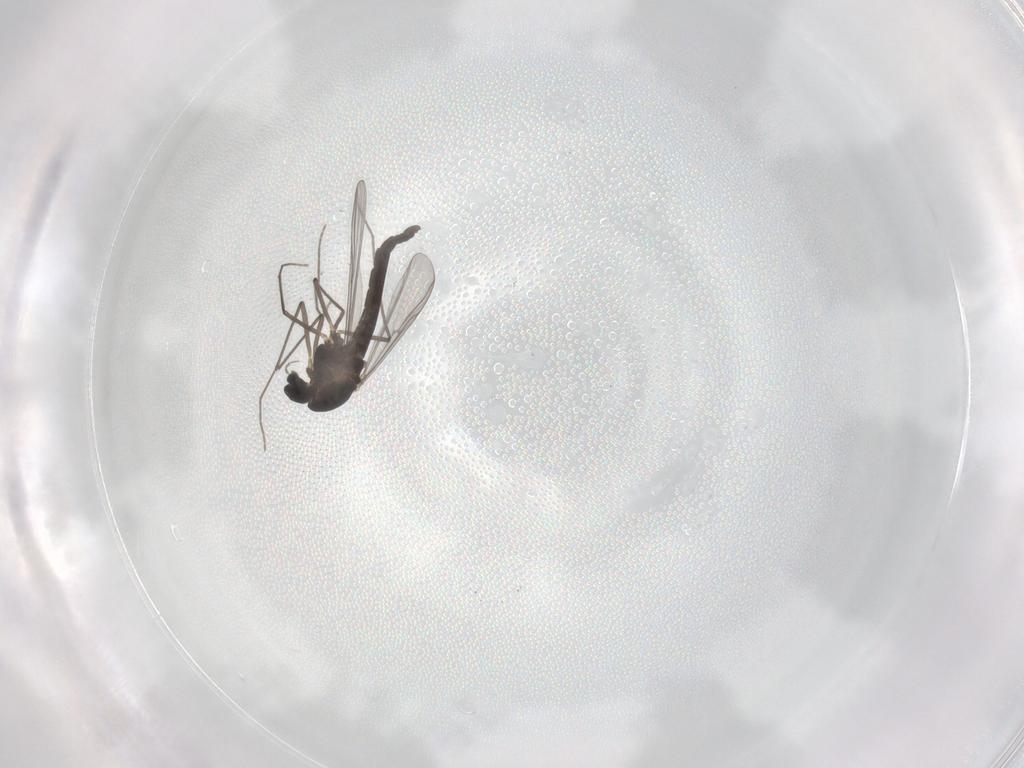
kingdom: Animalia
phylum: Arthropoda
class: Insecta
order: Diptera
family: Chironomidae
